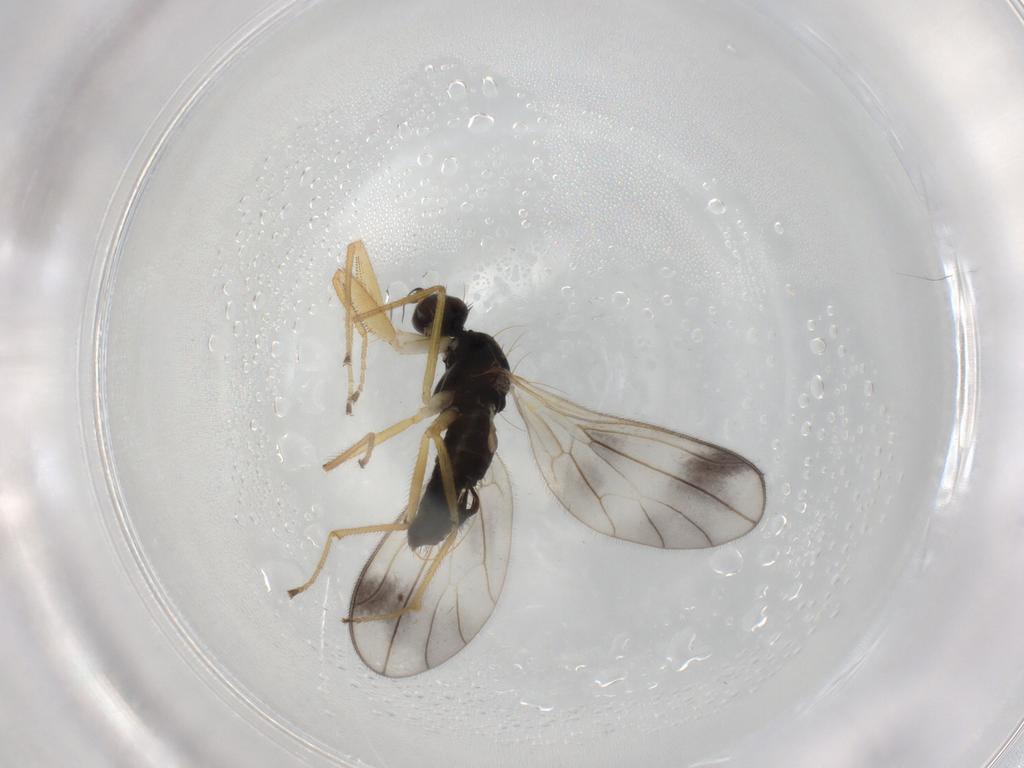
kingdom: Animalia
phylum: Arthropoda
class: Insecta
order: Diptera
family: Empididae
